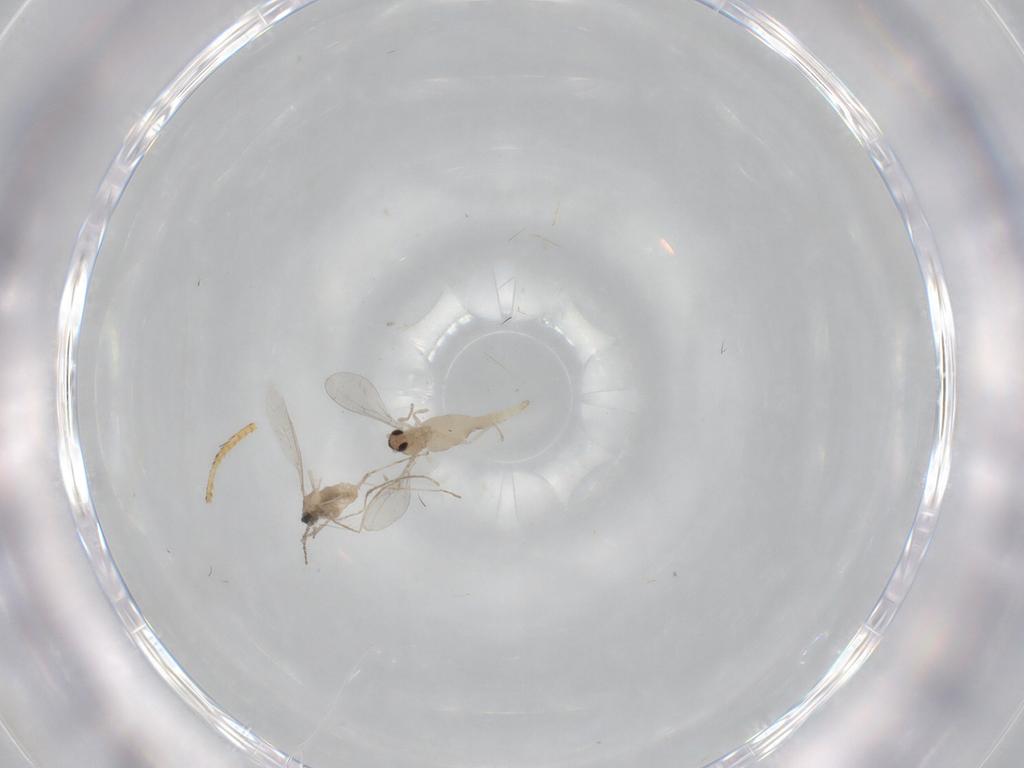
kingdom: Animalia
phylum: Arthropoda
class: Insecta
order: Diptera
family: Cecidomyiidae
